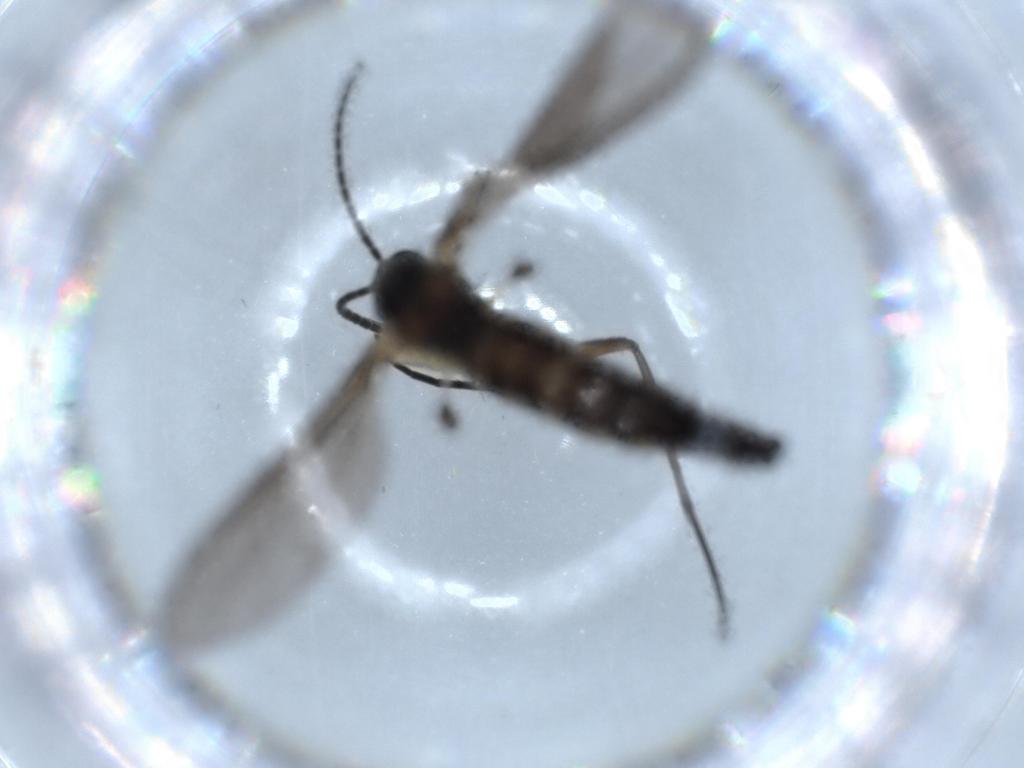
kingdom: Animalia
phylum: Arthropoda
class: Insecta
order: Diptera
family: Sciaridae
